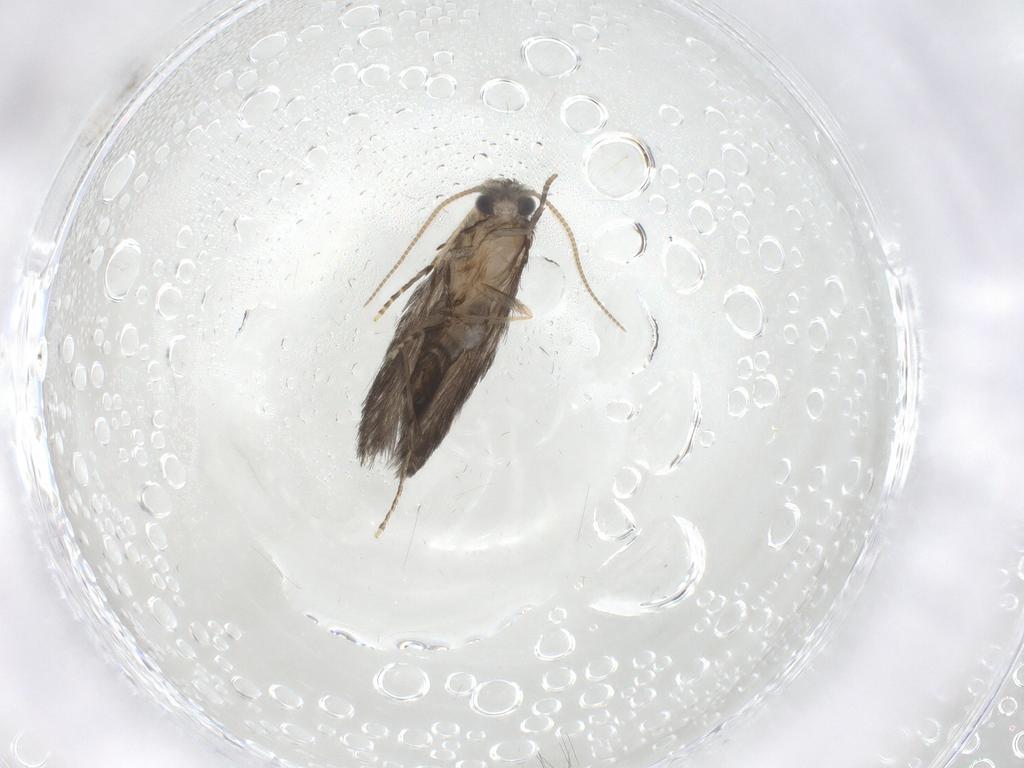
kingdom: Animalia
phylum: Arthropoda
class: Insecta
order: Trichoptera
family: Hydroptilidae
